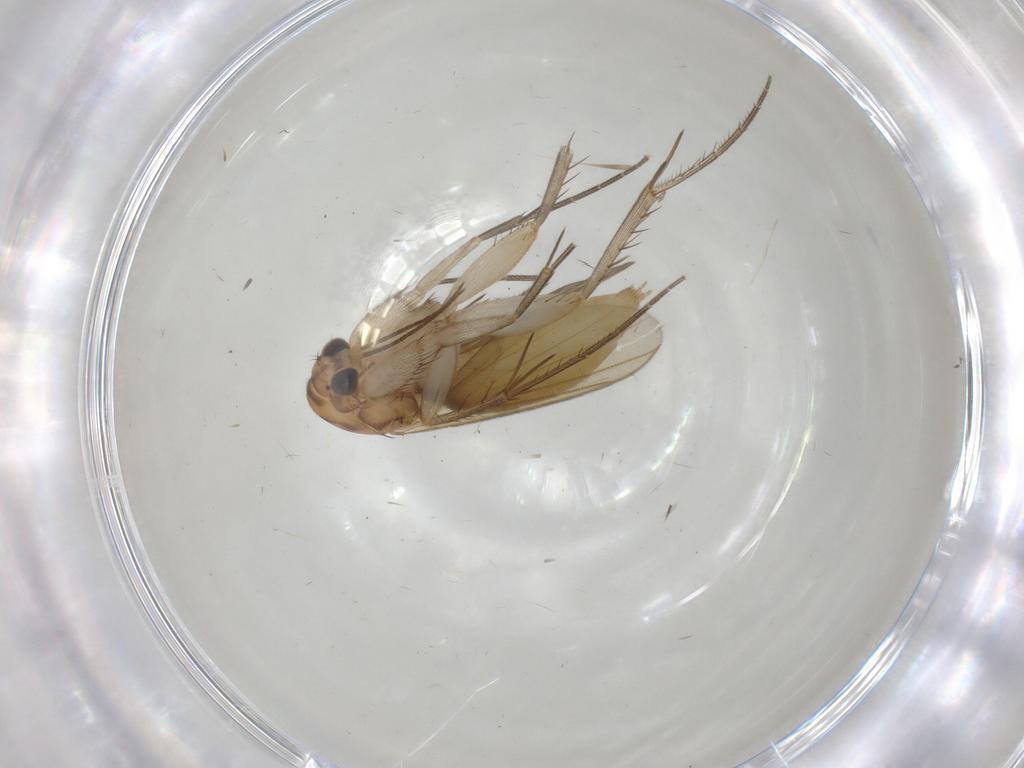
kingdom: Animalia
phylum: Arthropoda
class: Insecta
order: Diptera
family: Mycetophilidae
